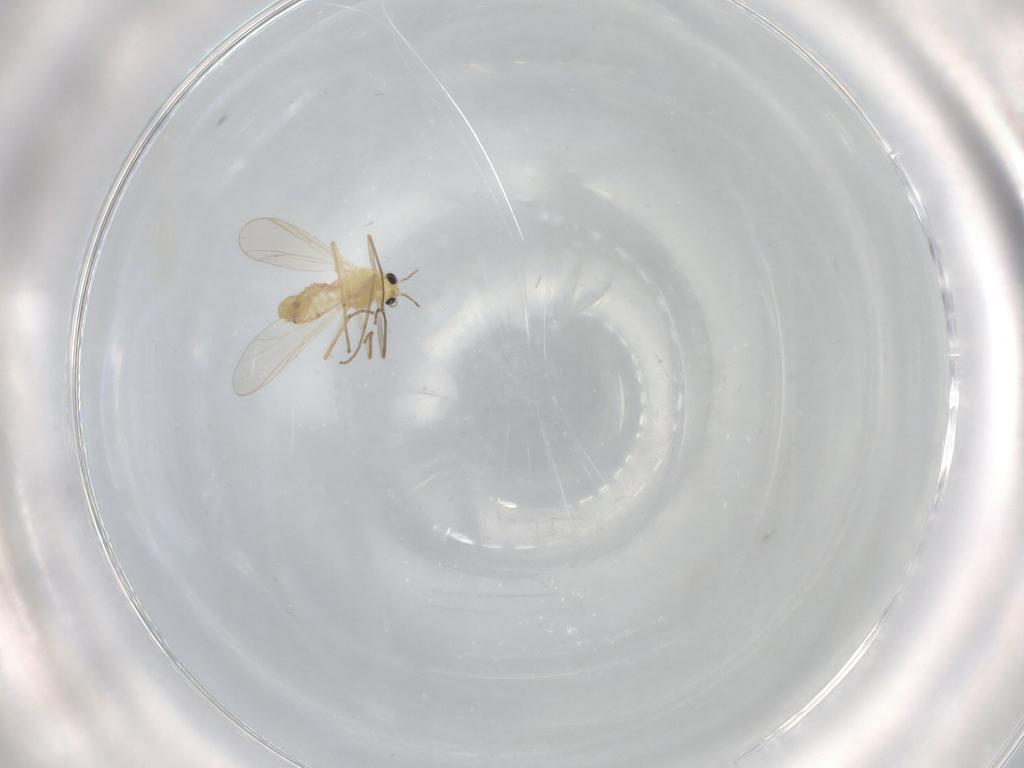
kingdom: Animalia
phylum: Arthropoda
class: Insecta
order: Diptera
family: Chironomidae
